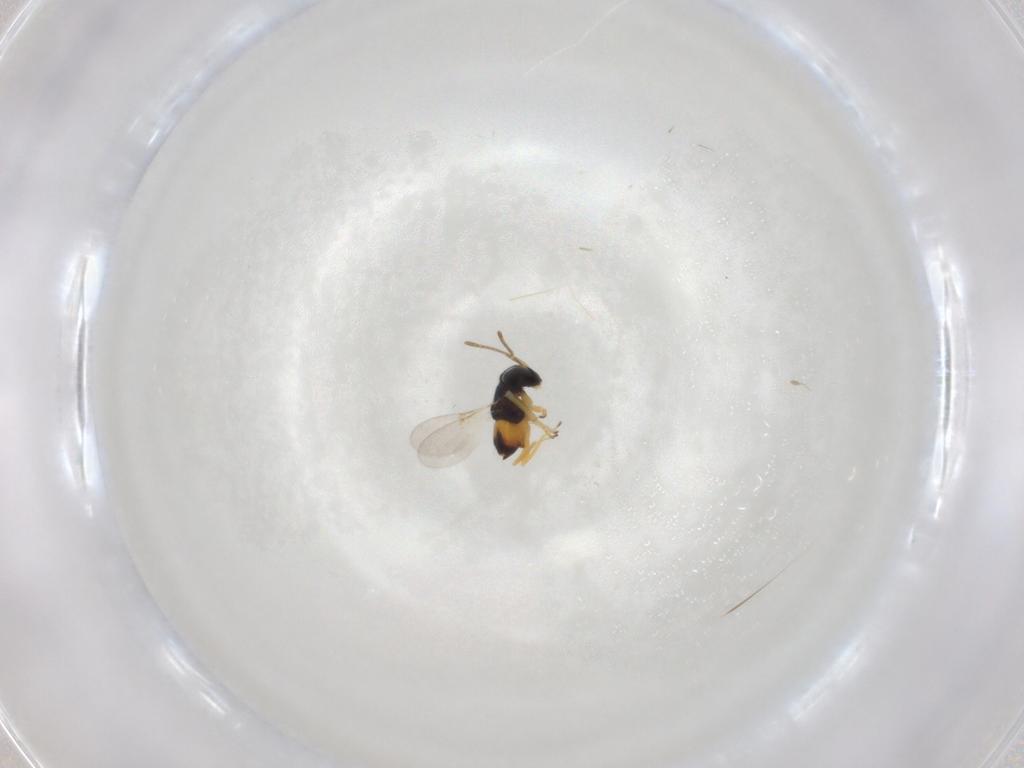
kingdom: Animalia
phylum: Arthropoda
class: Insecta
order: Hymenoptera
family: Encyrtidae
